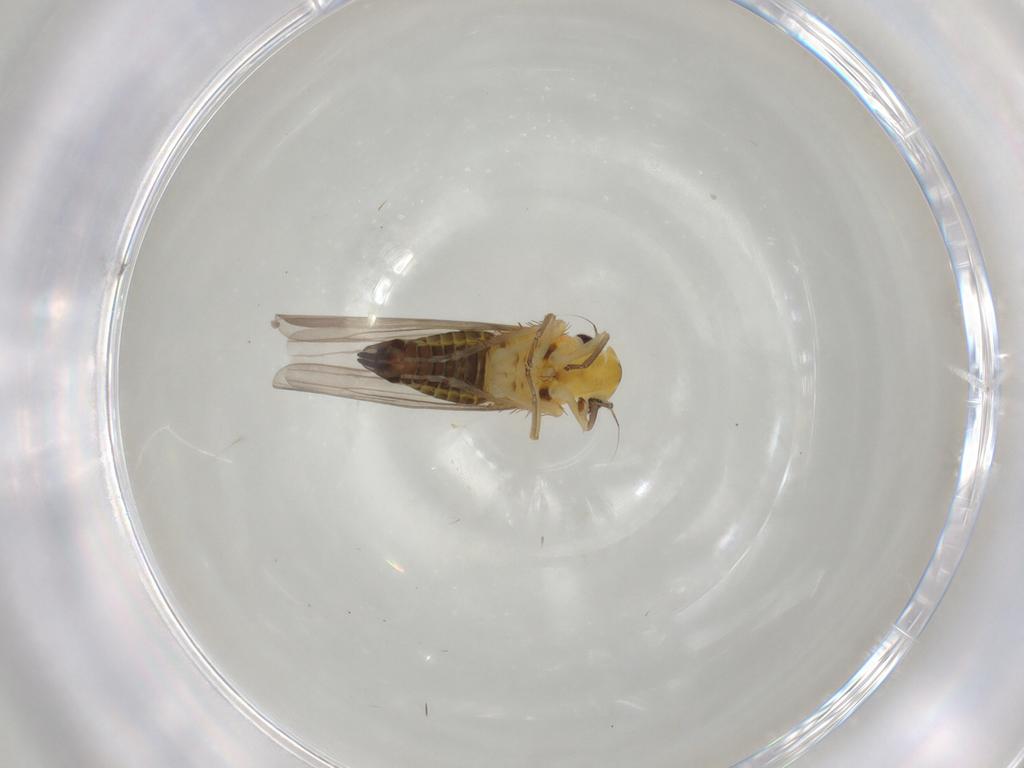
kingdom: Animalia
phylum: Arthropoda
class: Insecta
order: Hemiptera
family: Cicadellidae
